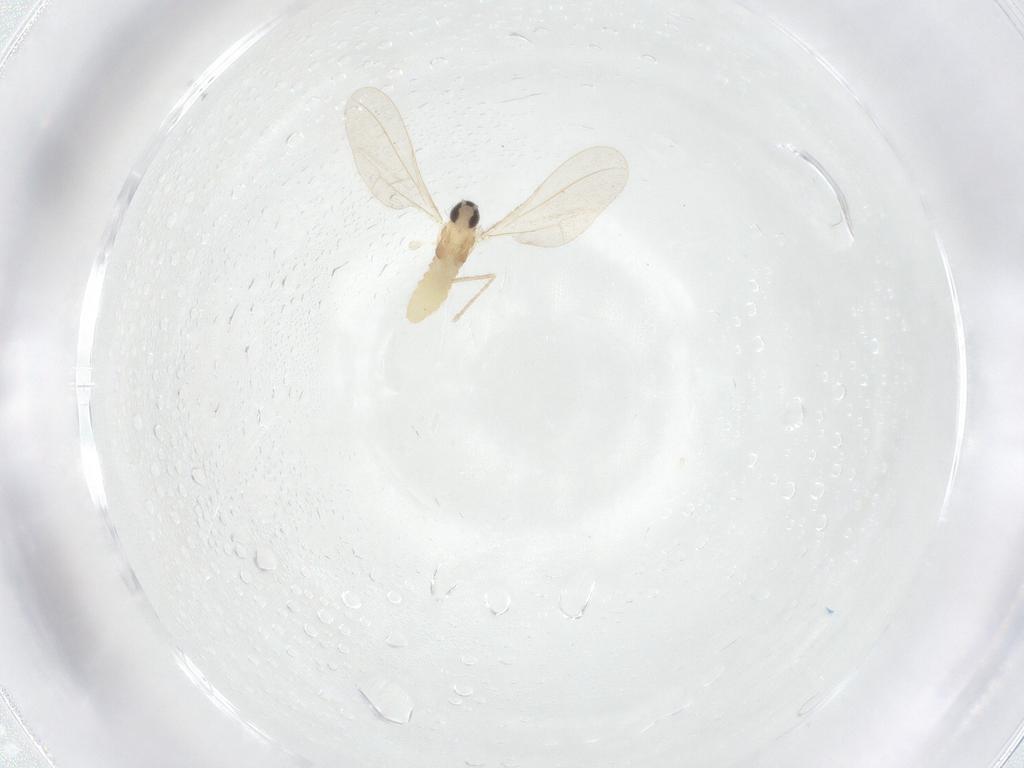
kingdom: Animalia
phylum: Arthropoda
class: Insecta
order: Diptera
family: Cecidomyiidae
